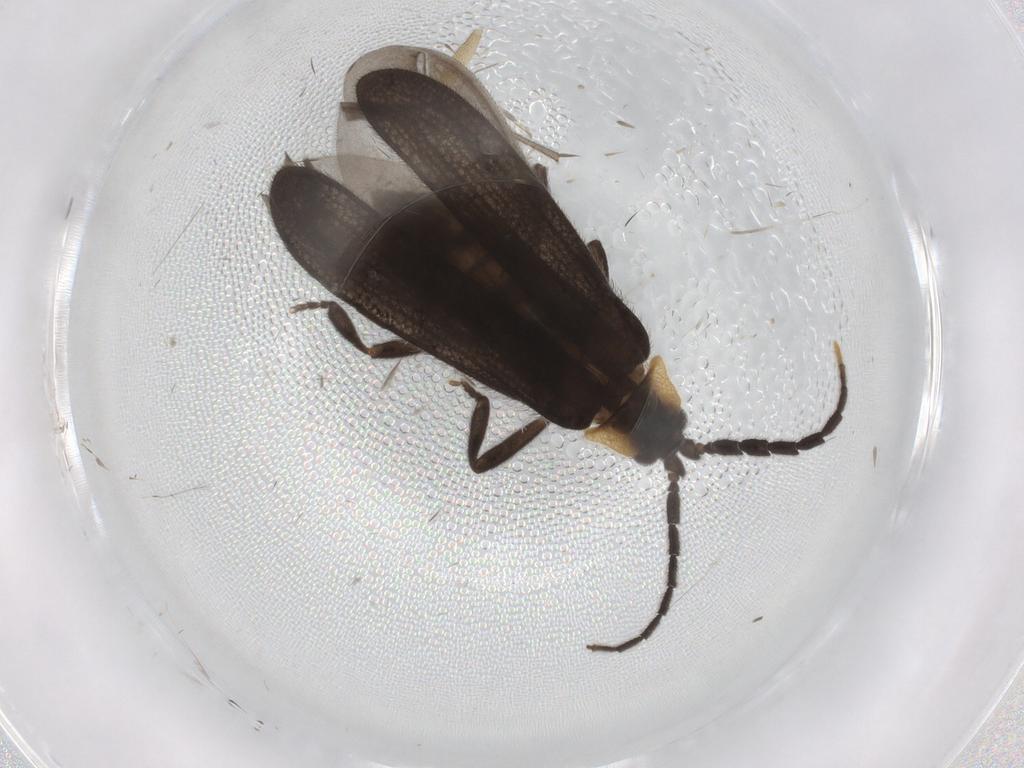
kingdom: Animalia
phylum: Arthropoda
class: Insecta
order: Coleoptera
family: Lycidae
